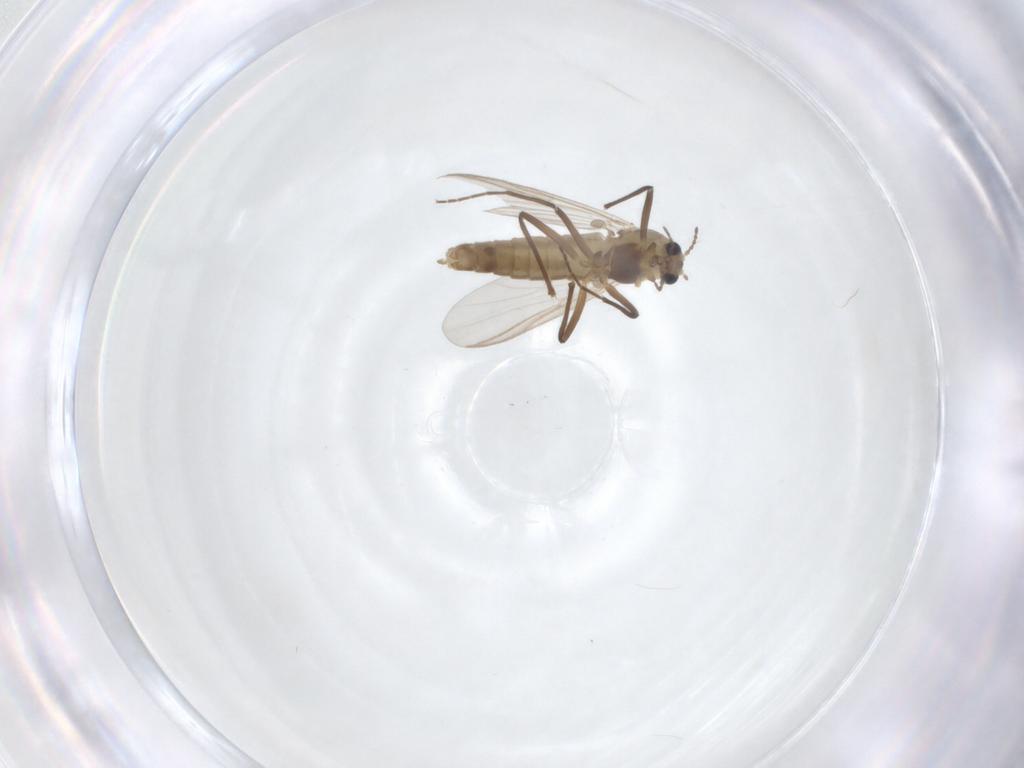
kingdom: Animalia
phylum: Arthropoda
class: Insecta
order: Diptera
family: Chironomidae
